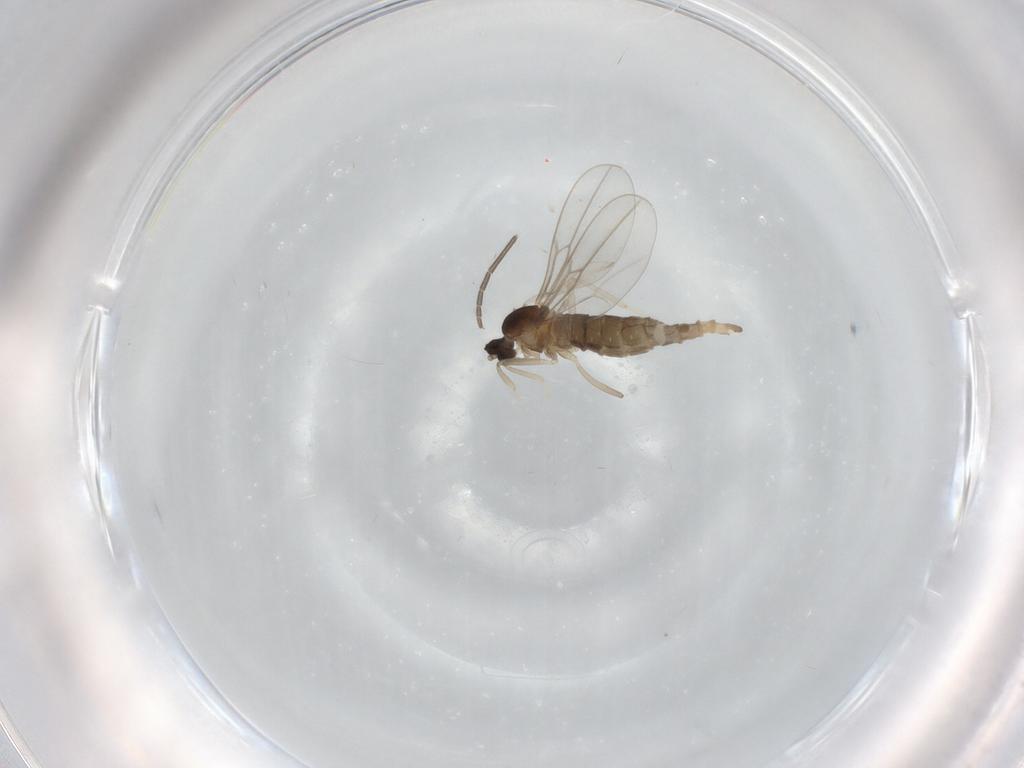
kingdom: Animalia
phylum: Arthropoda
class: Insecta
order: Diptera
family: Cecidomyiidae
